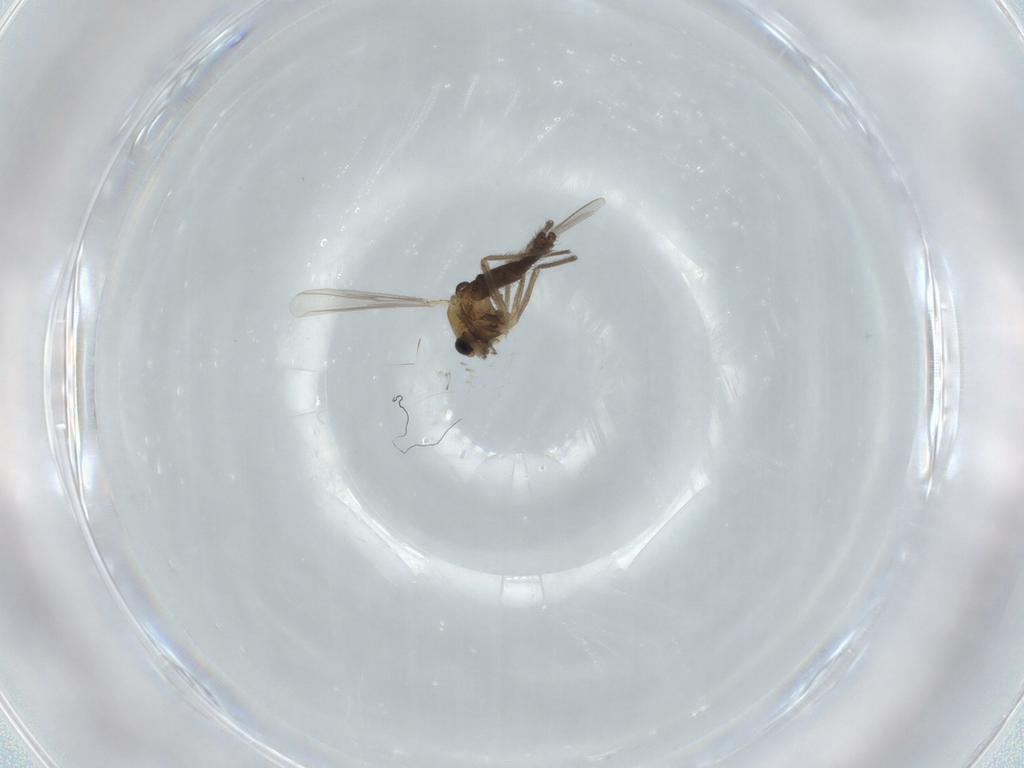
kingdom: Animalia
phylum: Arthropoda
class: Insecta
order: Diptera
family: Chironomidae
